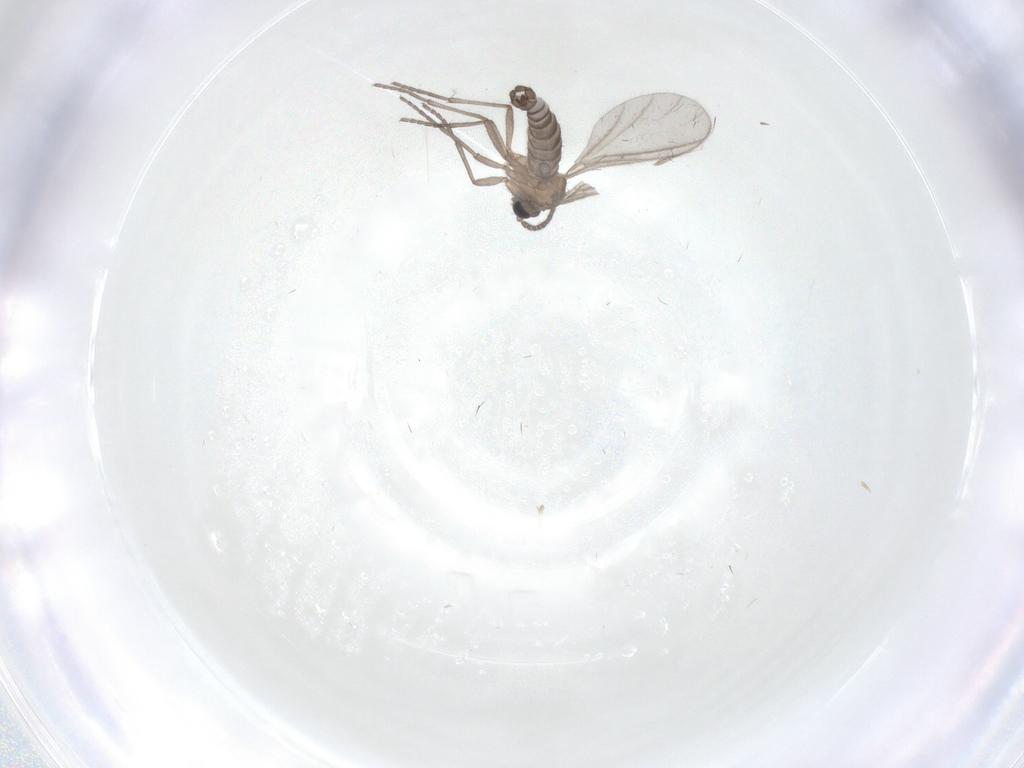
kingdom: Animalia
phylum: Arthropoda
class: Insecta
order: Diptera
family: Sciaridae
